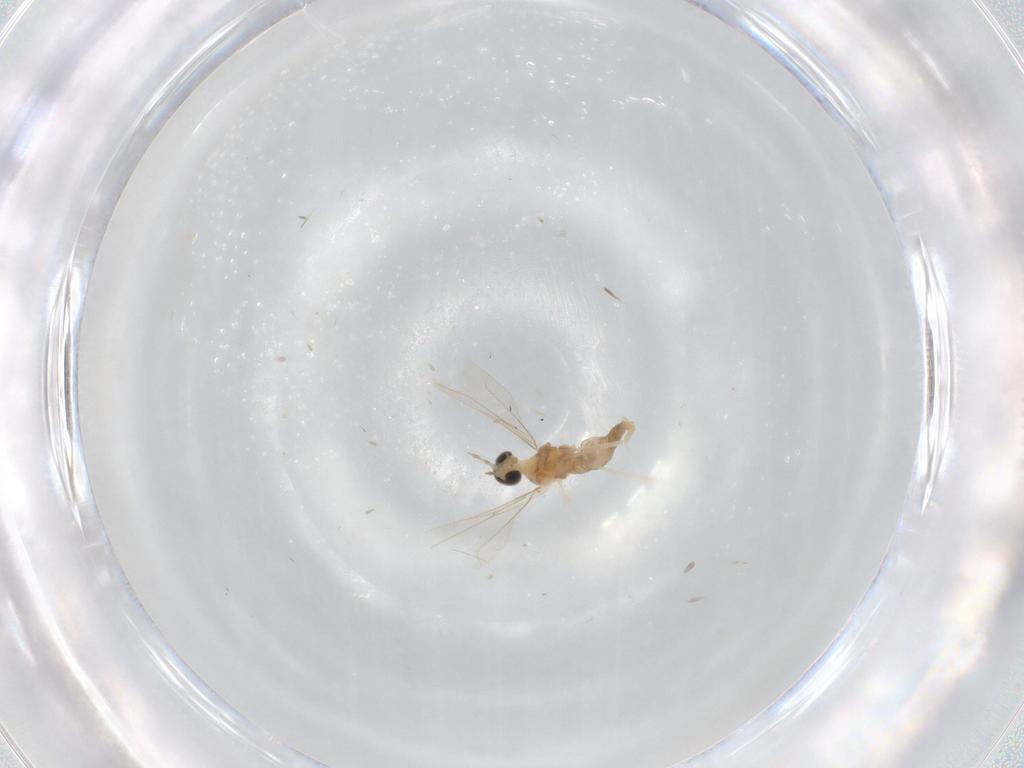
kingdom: Animalia
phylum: Arthropoda
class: Insecta
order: Diptera
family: Cecidomyiidae
